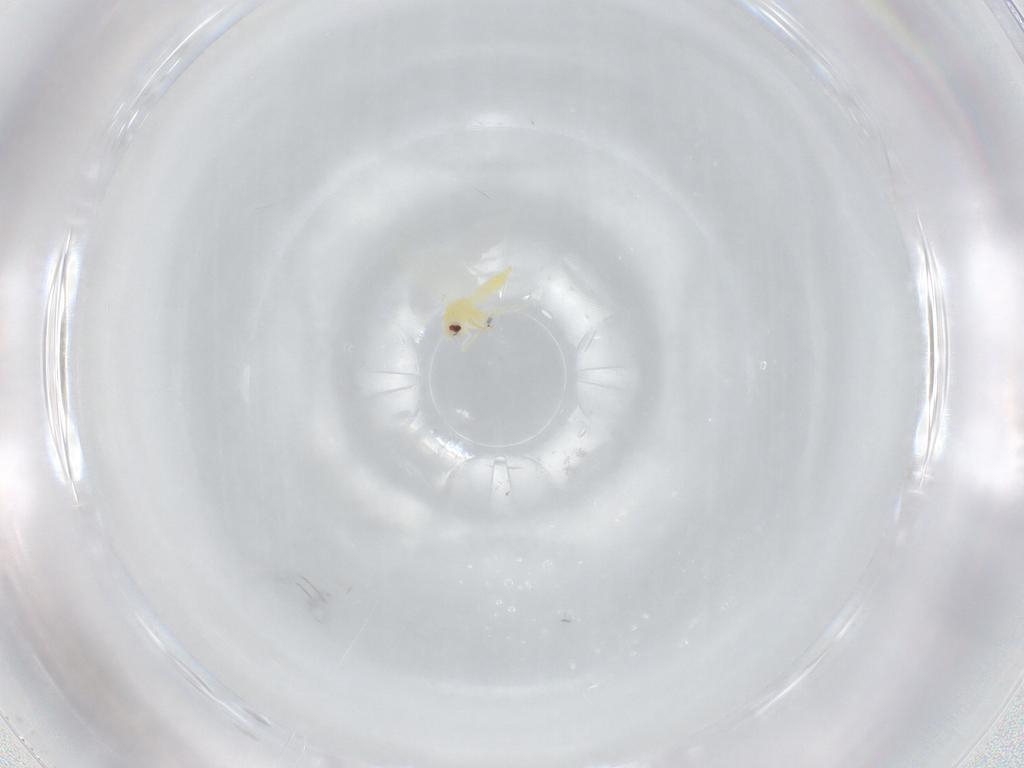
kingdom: Animalia
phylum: Arthropoda
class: Insecta
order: Hemiptera
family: Aleyrodidae
